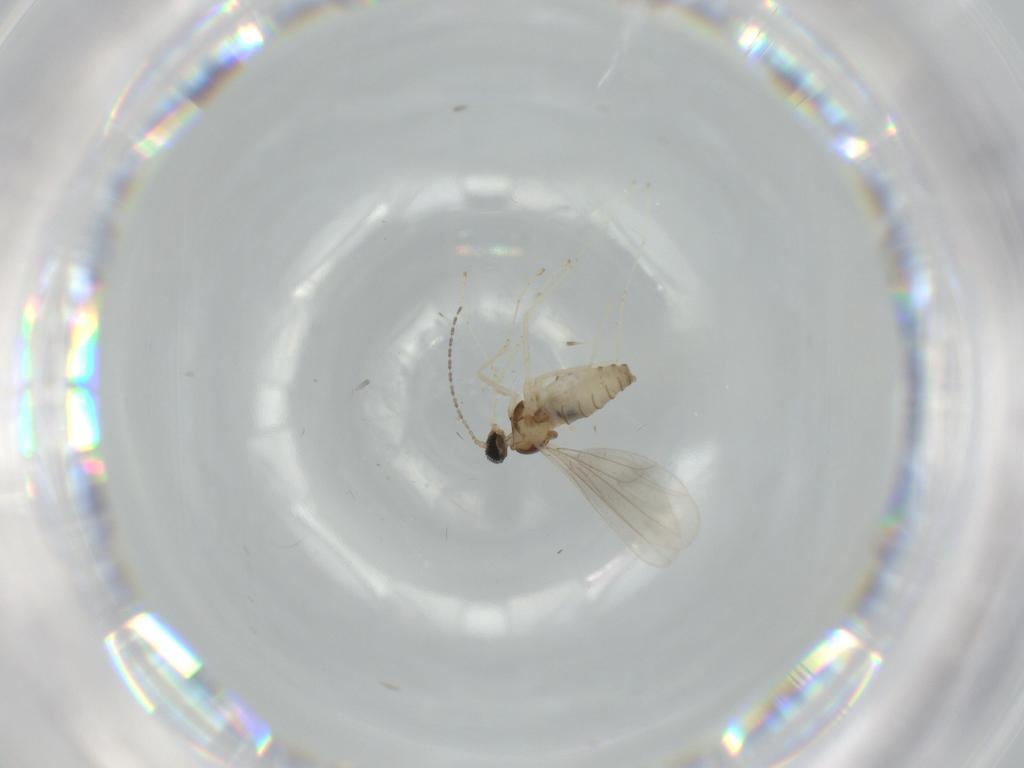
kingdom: Animalia
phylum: Arthropoda
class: Insecta
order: Diptera
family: Cecidomyiidae
